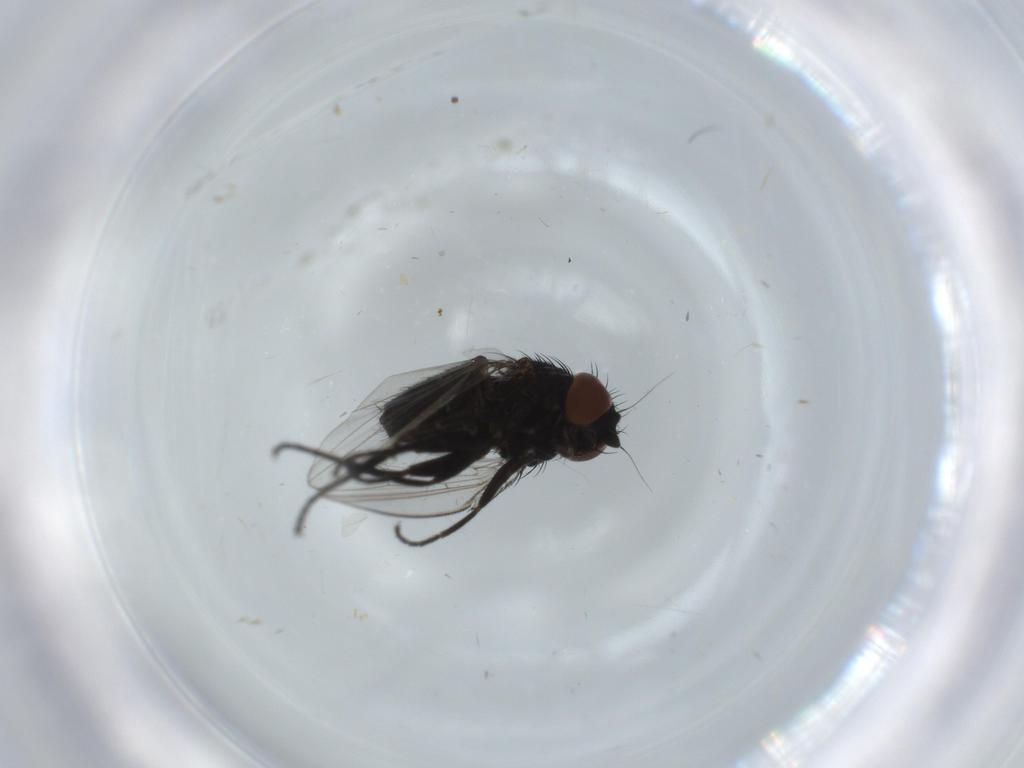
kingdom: Animalia
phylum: Arthropoda
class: Insecta
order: Diptera
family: Milichiidae
